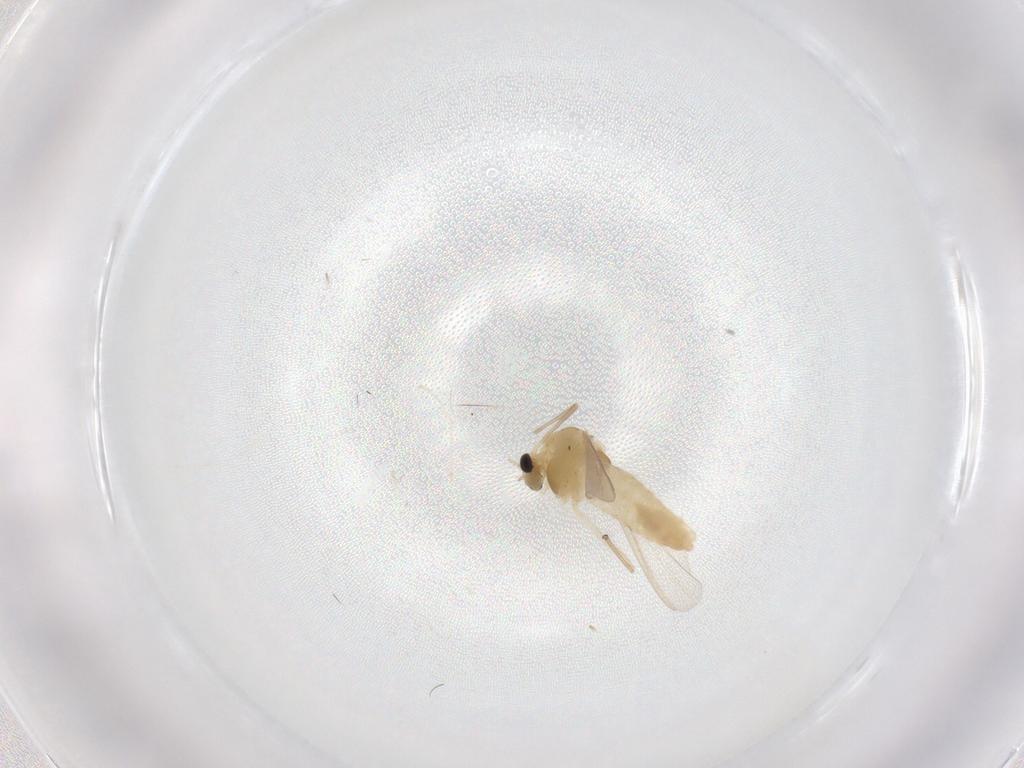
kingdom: Animalia
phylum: Arthropoda
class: Insecta
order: Diptera
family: Chironomidae
